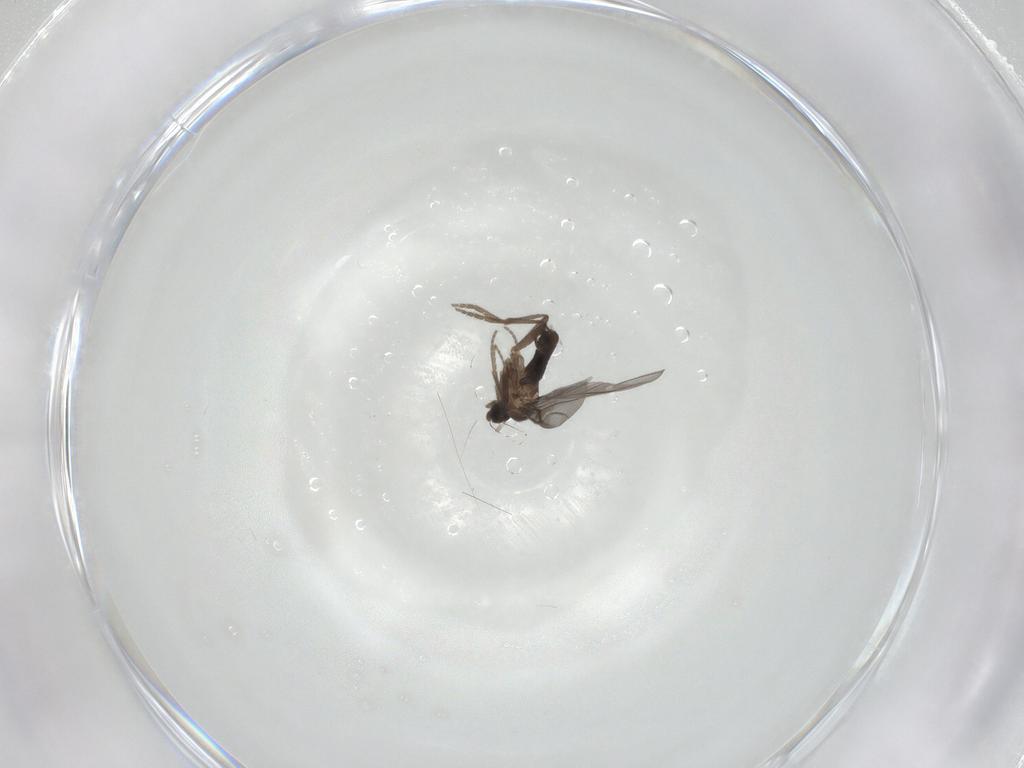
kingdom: Animalia
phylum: Arthropoda
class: Insecta
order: Diptera
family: Phoridae
